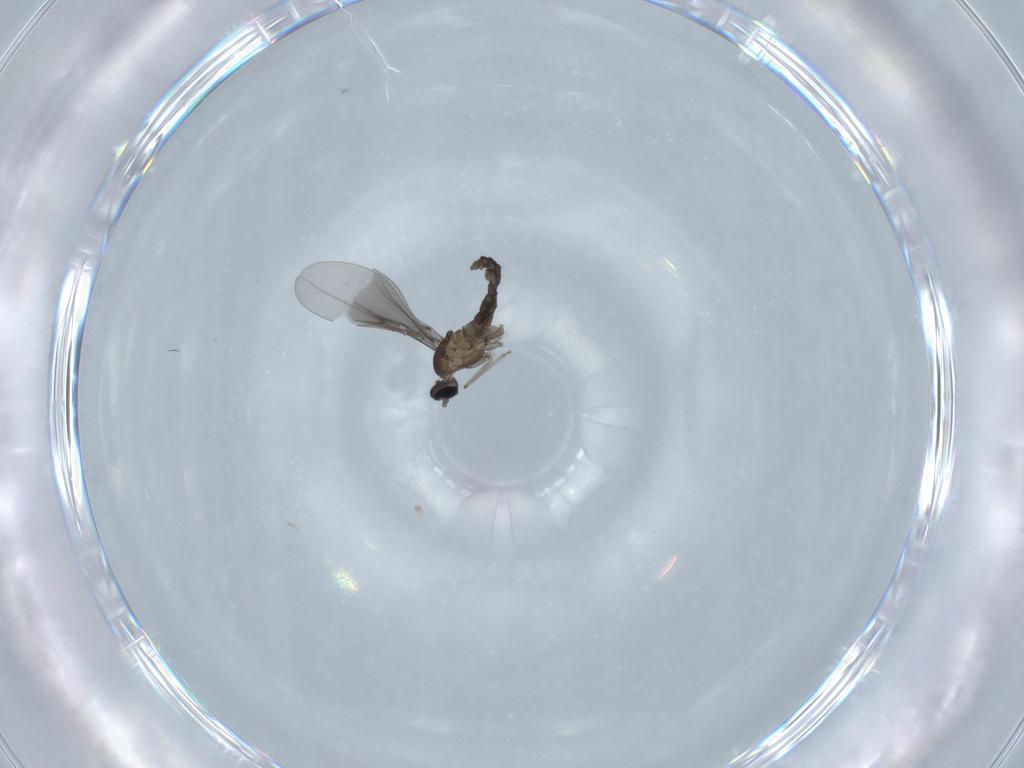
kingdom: Animalia
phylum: Arthropoda
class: Insecta
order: Diptera
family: Cecidomyiidae
